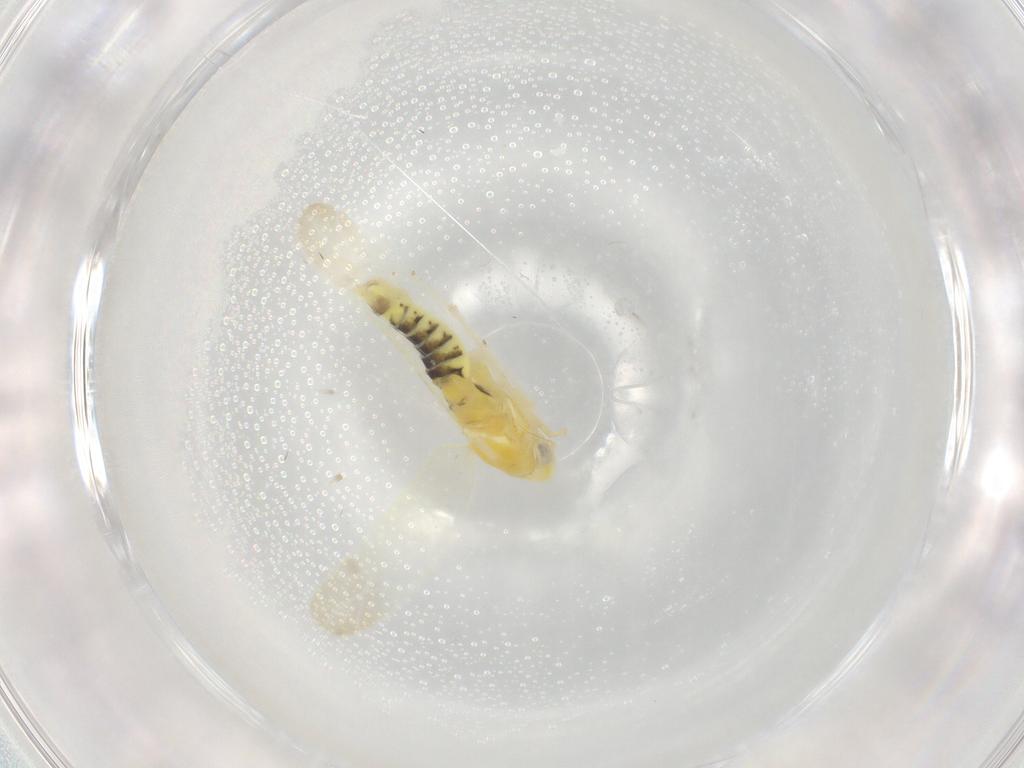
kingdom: Animalia
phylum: Arthropoda
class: Insecta
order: Hemiptera
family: Cicadellidae
